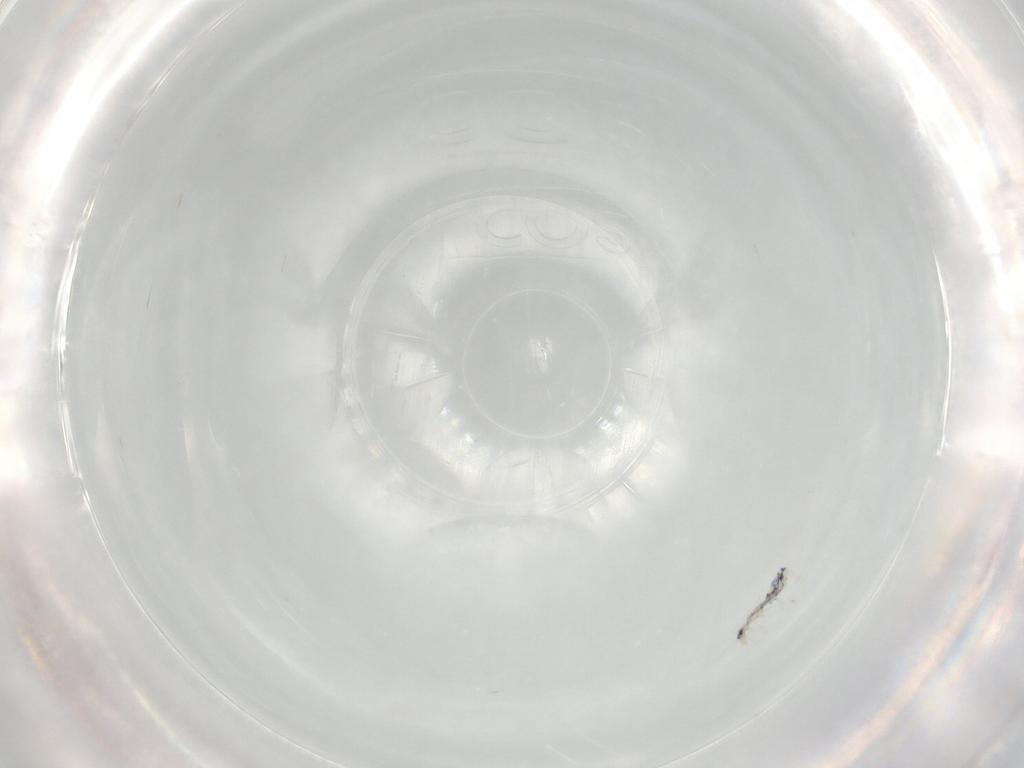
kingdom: Animalia
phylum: Arthropoda
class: Collembola
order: Entomobryomorpha
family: Entomobryidae
